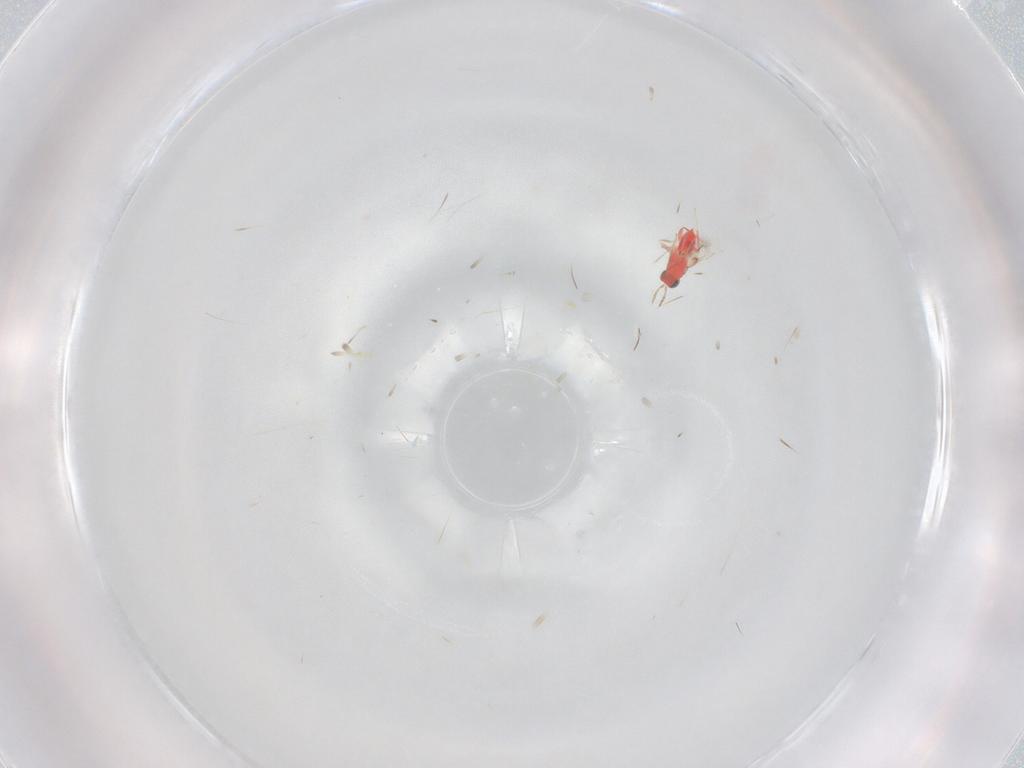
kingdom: Animalia
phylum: Arthropoda
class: Insecta
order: Hymenoptera
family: Trichogrammatidae
